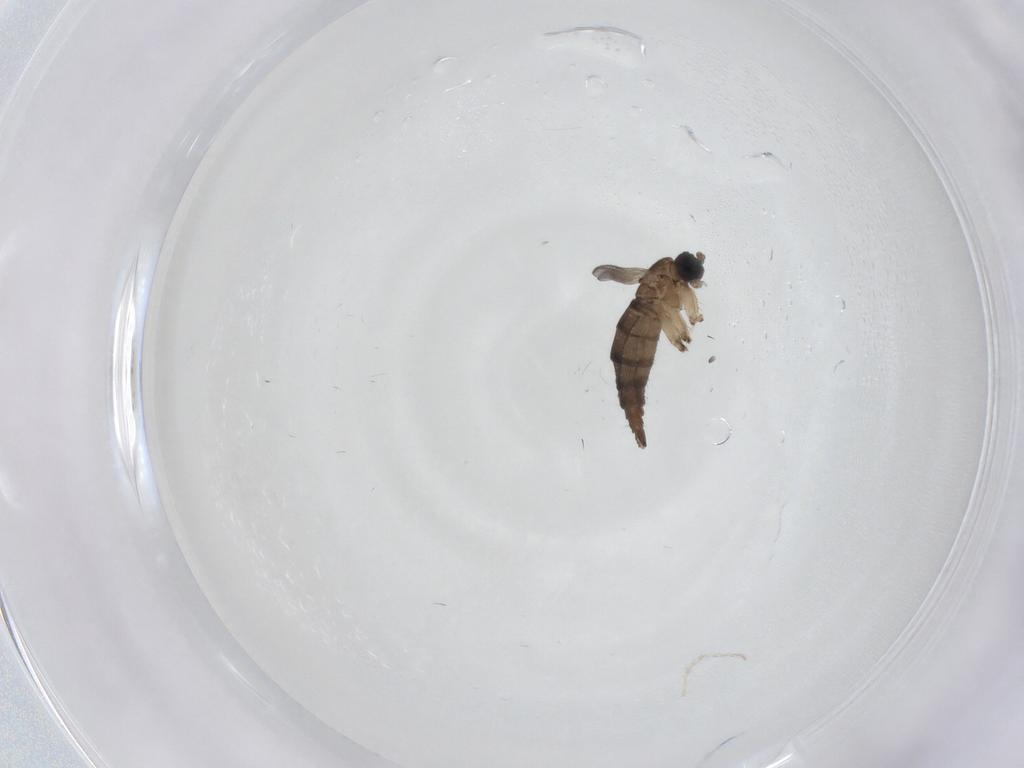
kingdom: Animalia
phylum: Arthropoda
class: Insecta
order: Diptera
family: Sciaridae
